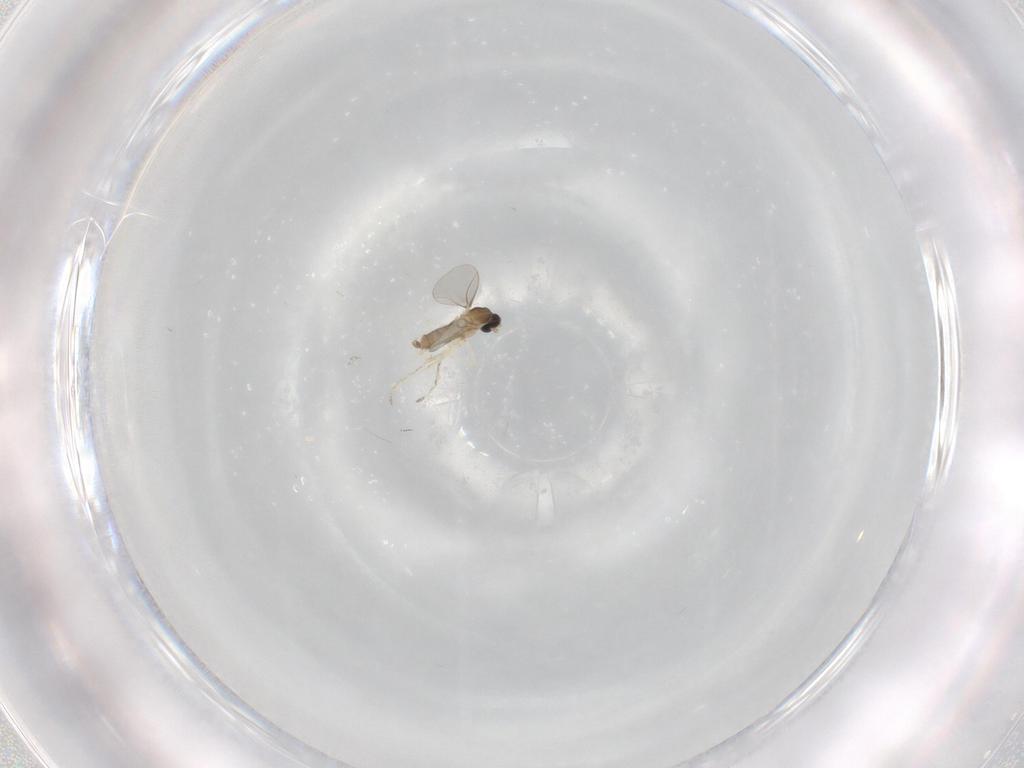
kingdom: Animalia
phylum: Arthropoda
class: Insecta
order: Diptera
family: Cecidomyiidae
